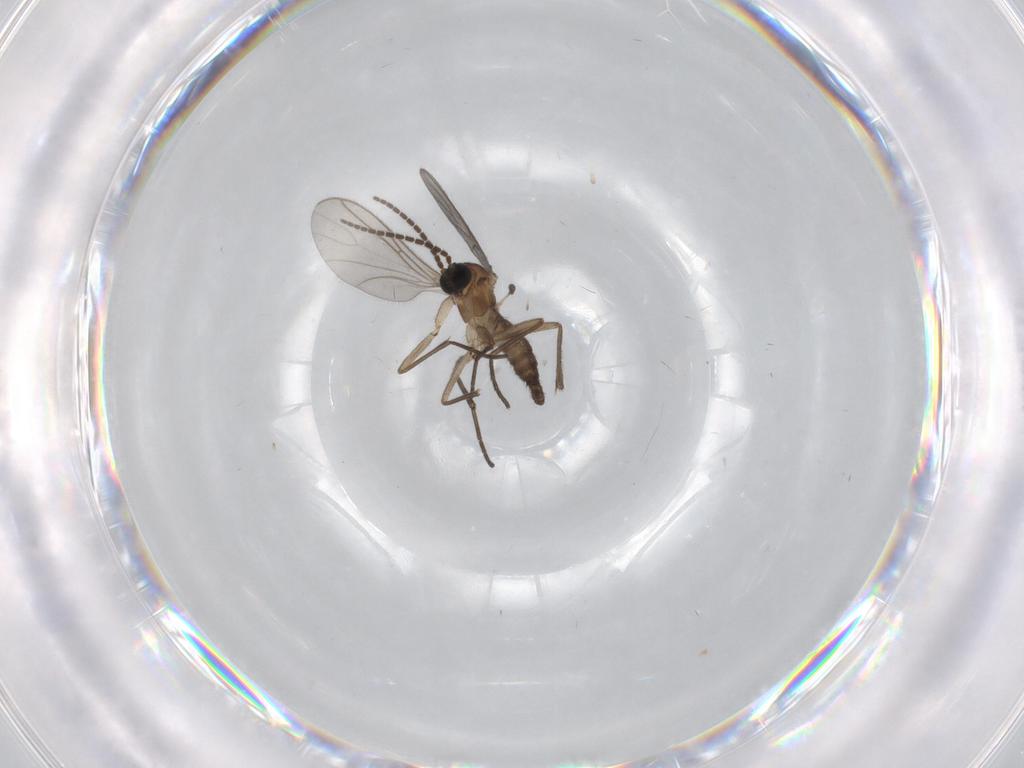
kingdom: Animalia
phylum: Arthropoda
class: Insecta
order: Diptera
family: Sciaridae
